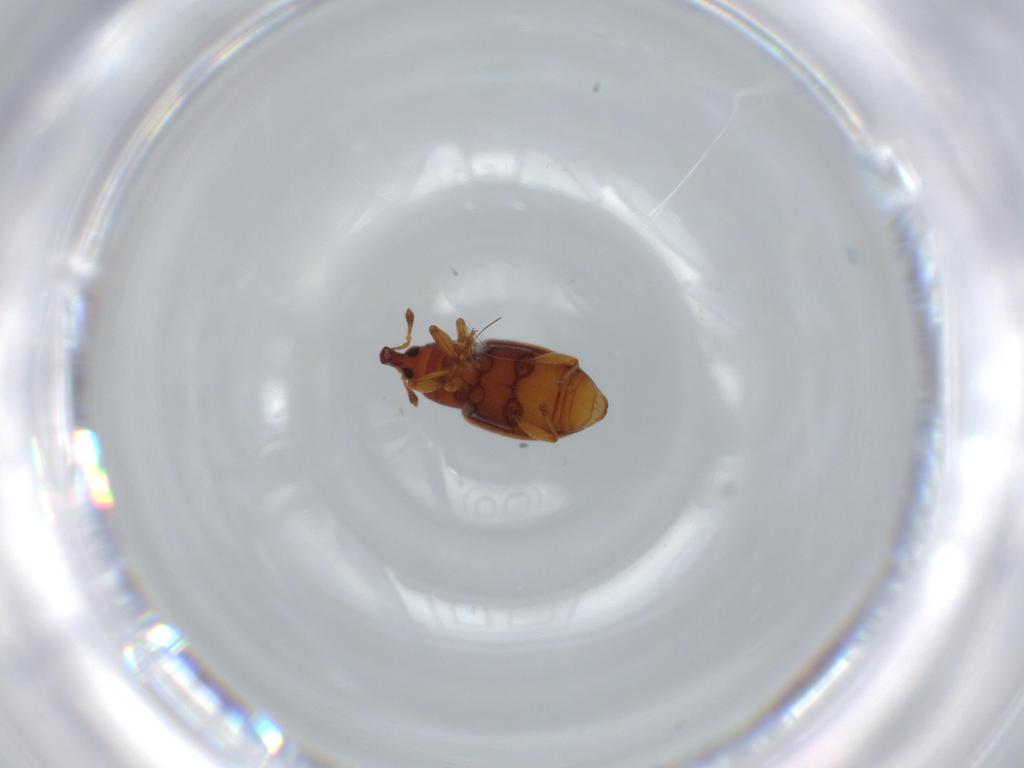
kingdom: Animalia
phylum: Arthropoda
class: Insecta
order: Coleoptera
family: Curculionidae
